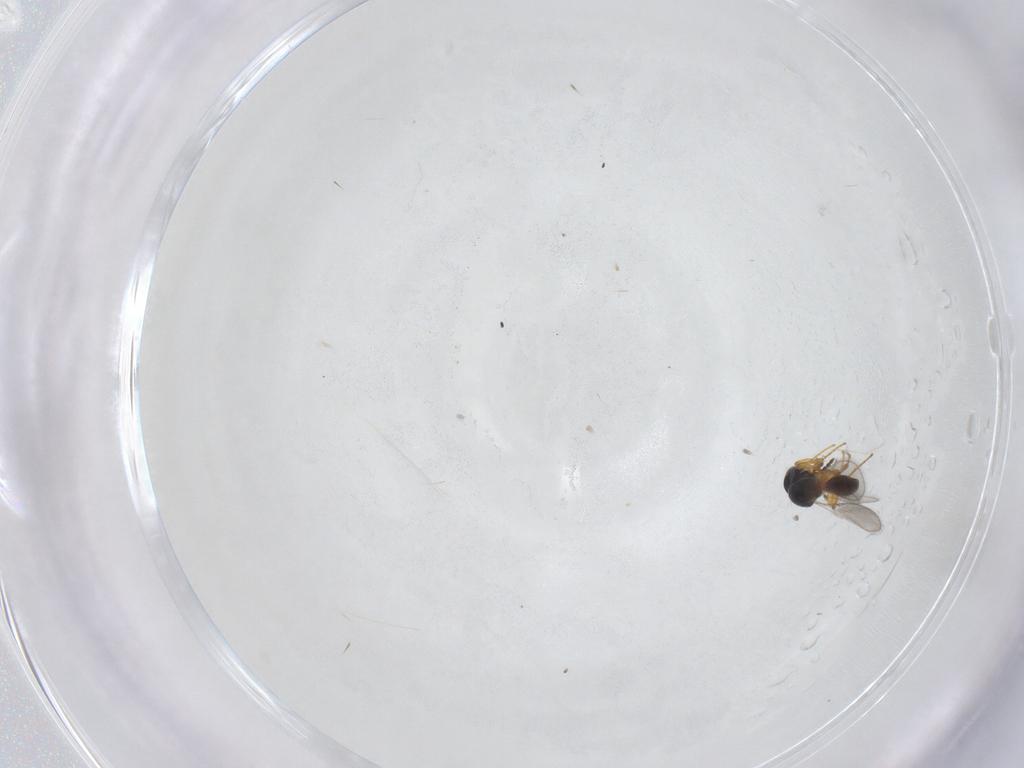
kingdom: Animalia
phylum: Arthropoda
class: Insecta
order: Hymenoptera
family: Platygastridae
